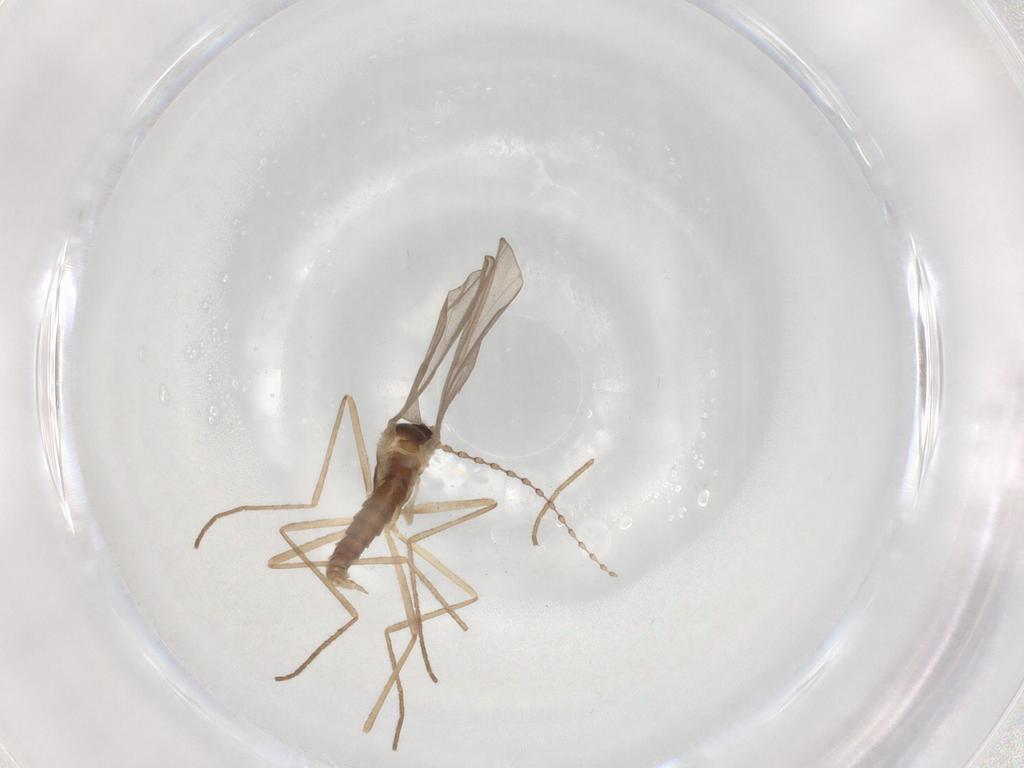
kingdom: Animalia
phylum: Arthropoda
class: Insecta
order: Diptera
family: Cecidomyiidae
